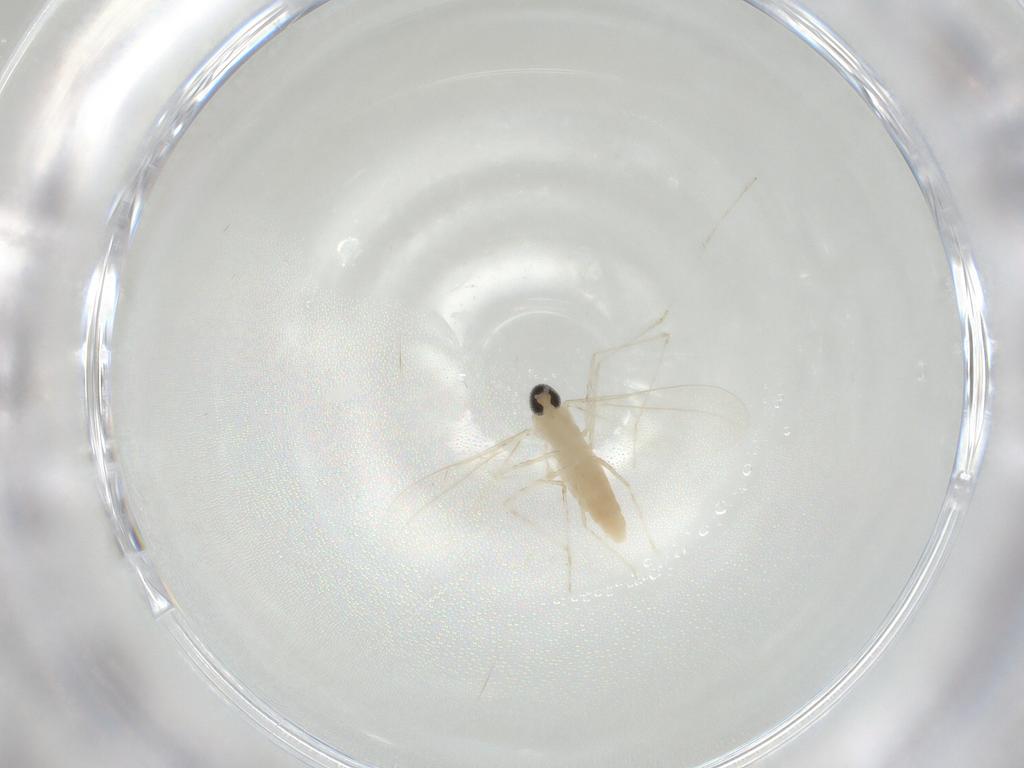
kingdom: Animalia
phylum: Arthropoda
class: Insecta
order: Diptera
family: Cecidomyiidae
